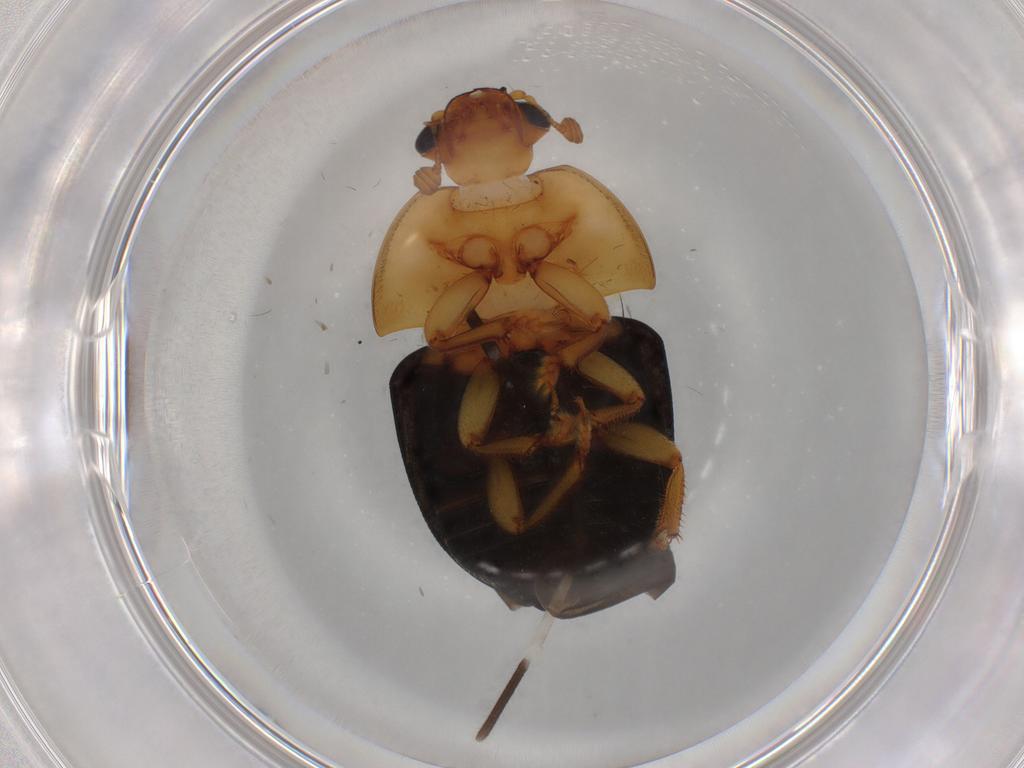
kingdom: Animalia
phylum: Arthropoda
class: Insecta
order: Coleoptera
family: Nitidulidae
